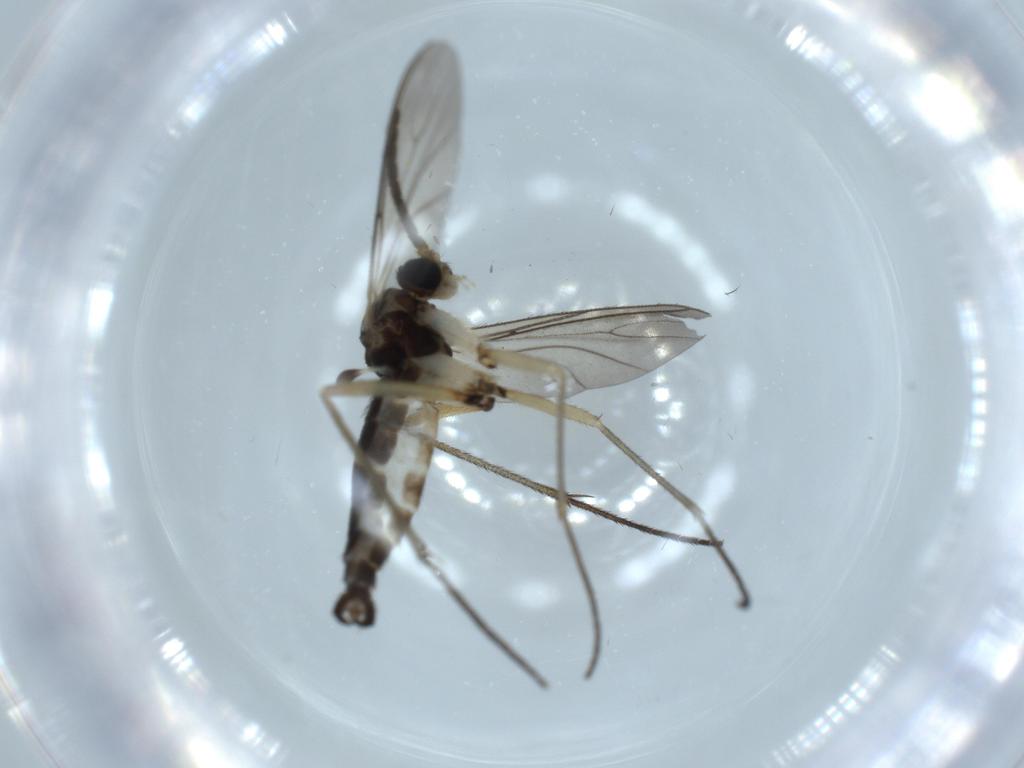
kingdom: Animalia
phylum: Arthropoda
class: Insecta
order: Diptera
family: Sciaridae
